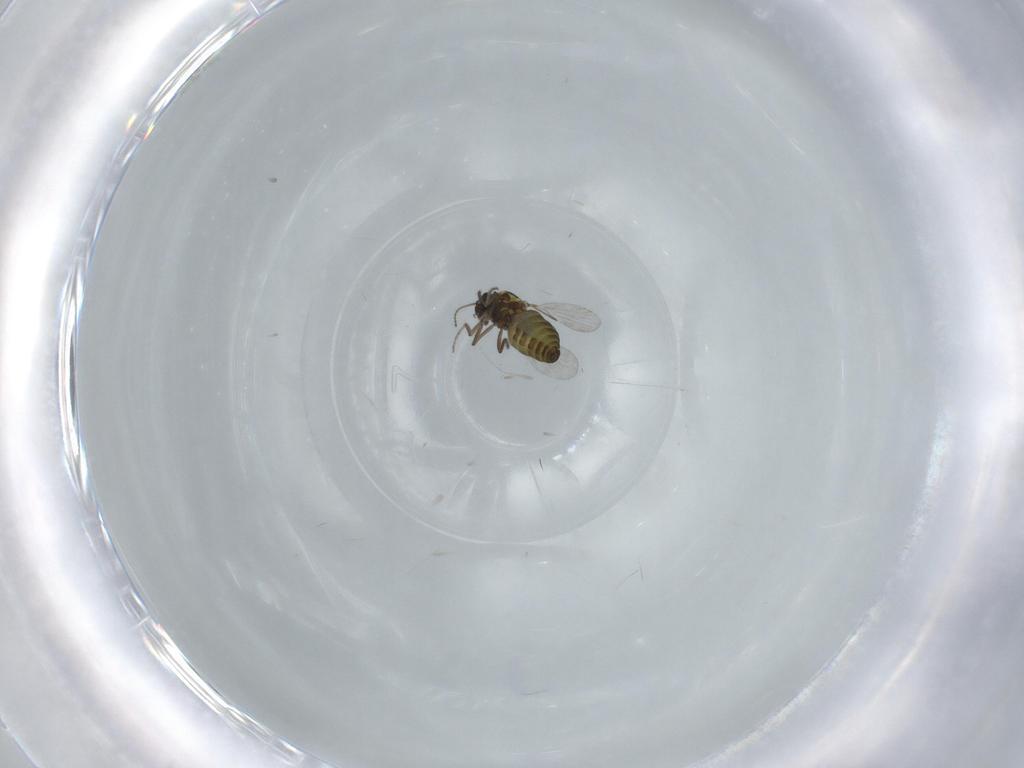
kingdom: Animalia
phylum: Arthropoda
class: Insecta
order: Diptera
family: Ceratopogonidae
